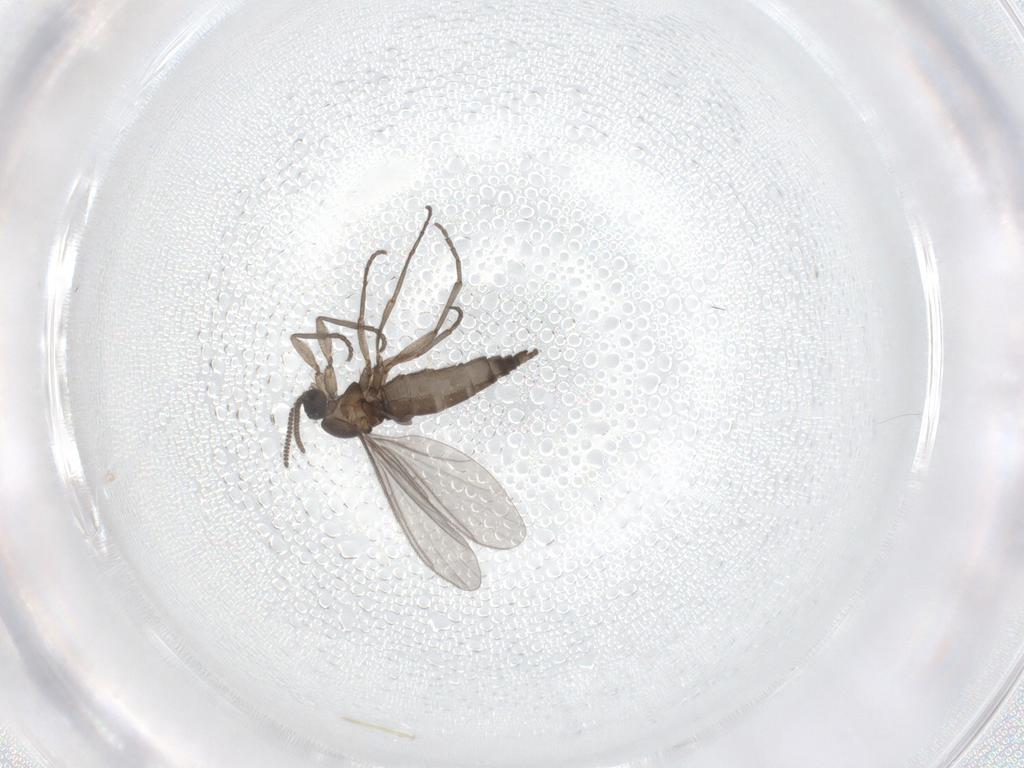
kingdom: Animalia
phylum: Arthropoda
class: Insecta
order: Diptera
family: Sciaridae
